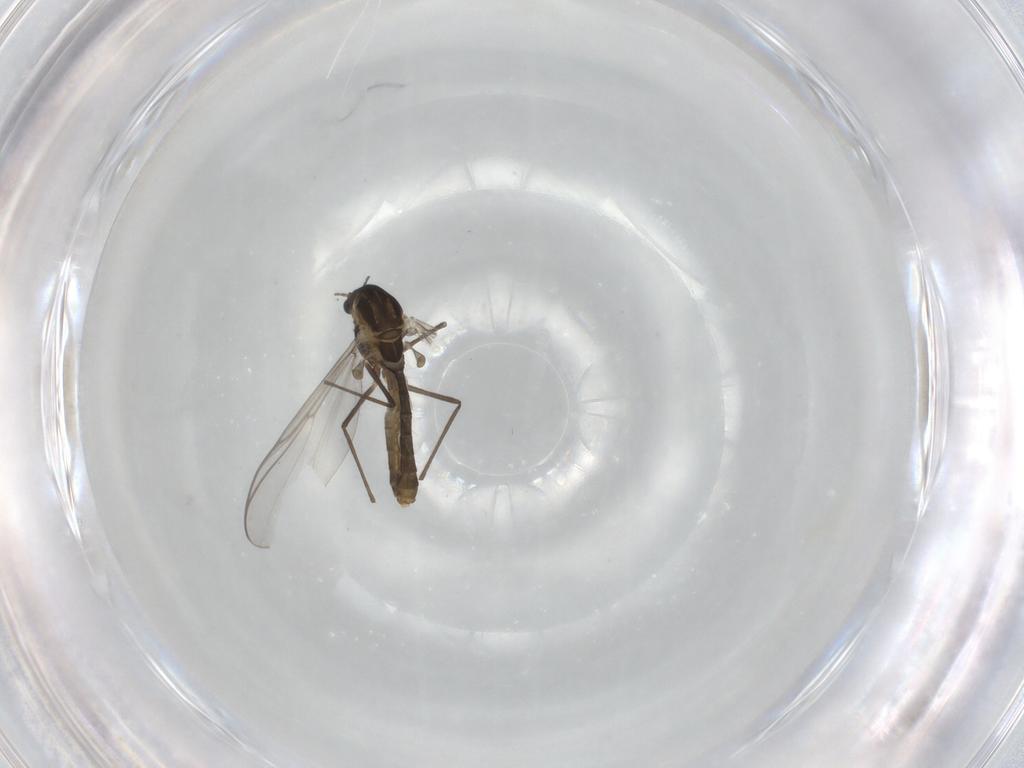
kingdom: Animalia
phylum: Arthropoda
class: Insecta
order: Diptera
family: Chironomidae
